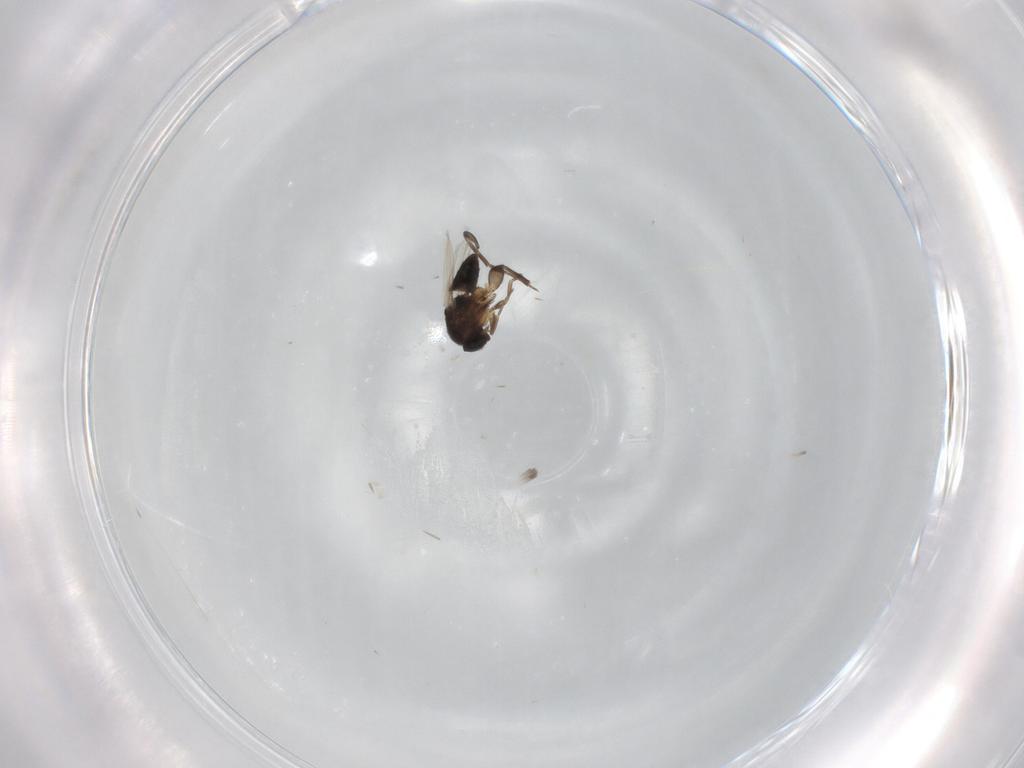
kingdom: Animalia
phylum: Arthropoda
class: Insecta
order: Diptera
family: Phoridae
